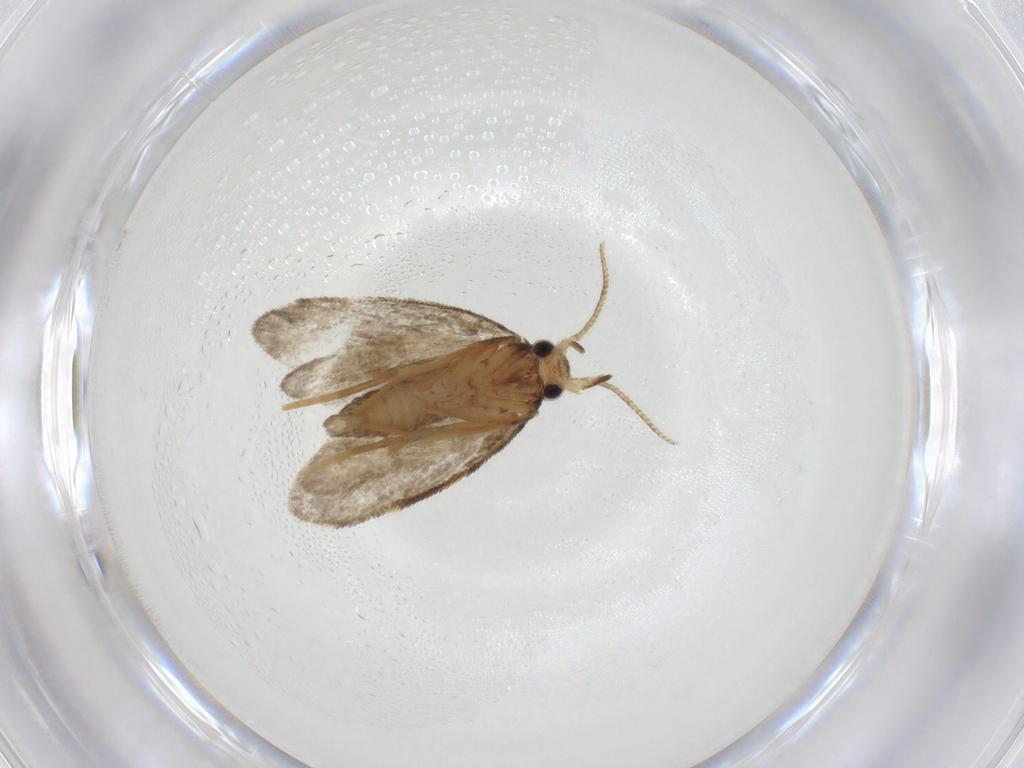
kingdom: Animalia
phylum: Arthropoda
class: Insecta
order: Lepidoptera
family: Psychidae
